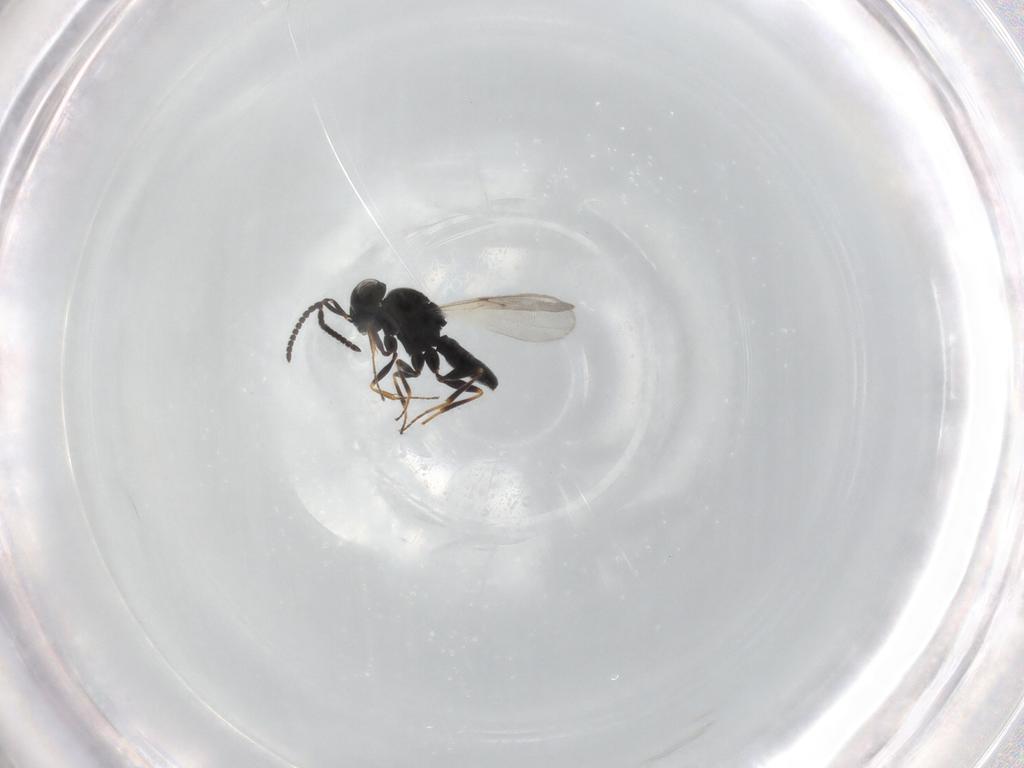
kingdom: Animalia
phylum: Arthropoda
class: Insecta
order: Hymenoptera
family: Scelionidae
